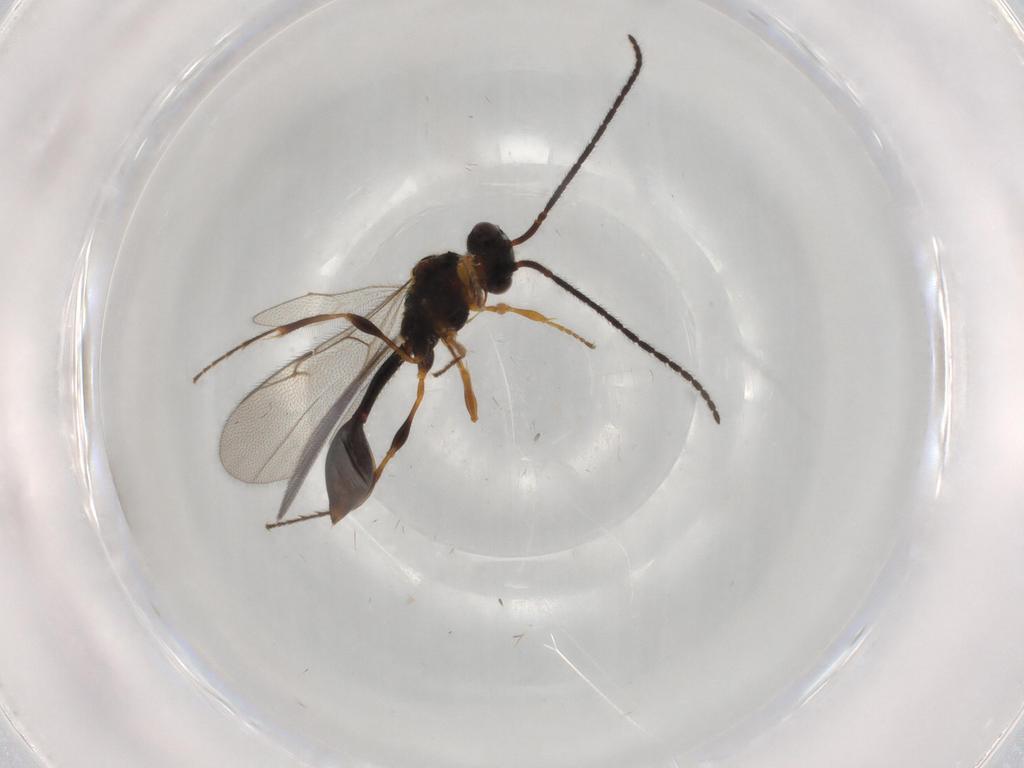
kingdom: Animalia
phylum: Arthropoda
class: Insecta
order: Hymenoptera
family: Diapriidae
